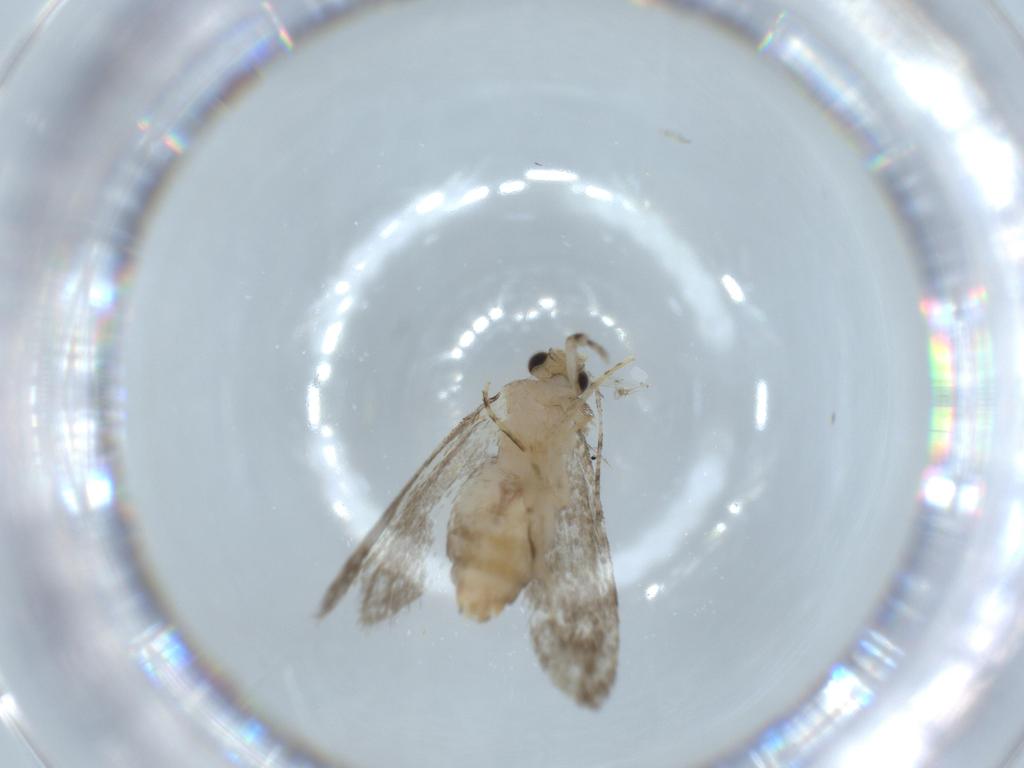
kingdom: Animalia
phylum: Arthropoda
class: Insecta
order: Lepidoptera
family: Tineidae
